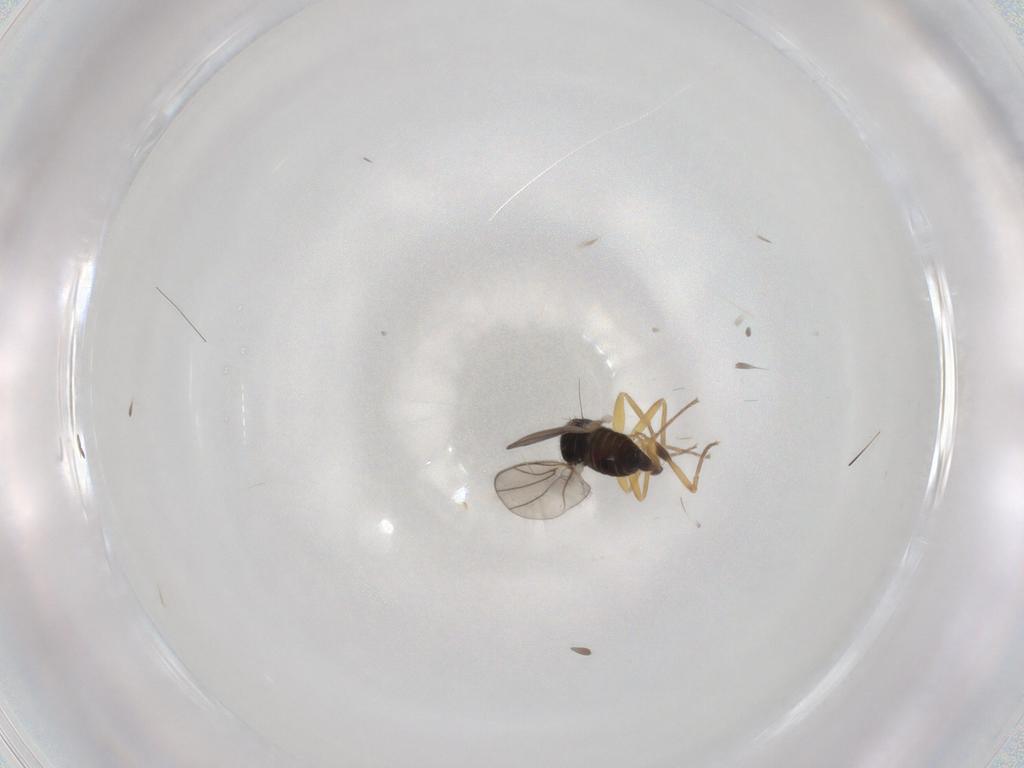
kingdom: Animalia
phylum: Arthropoda
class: Insecta
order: Diptera
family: Hybotidae
